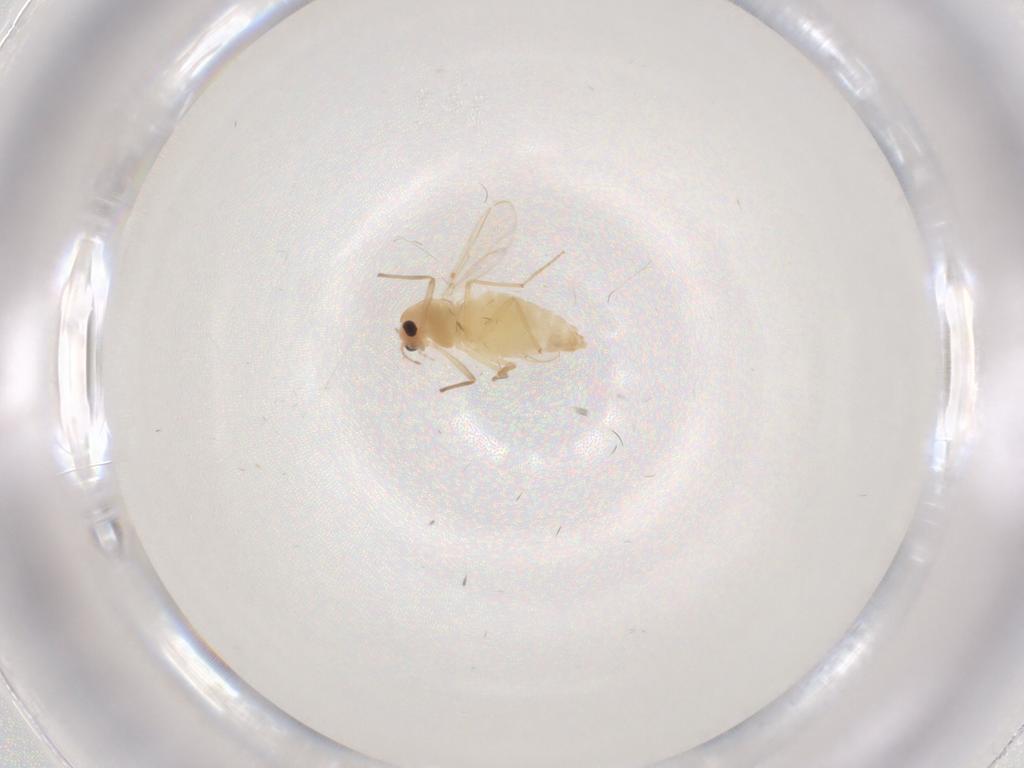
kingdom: Animalia
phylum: Arthropoda
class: Insecta
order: Diptera
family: Chironomidae
